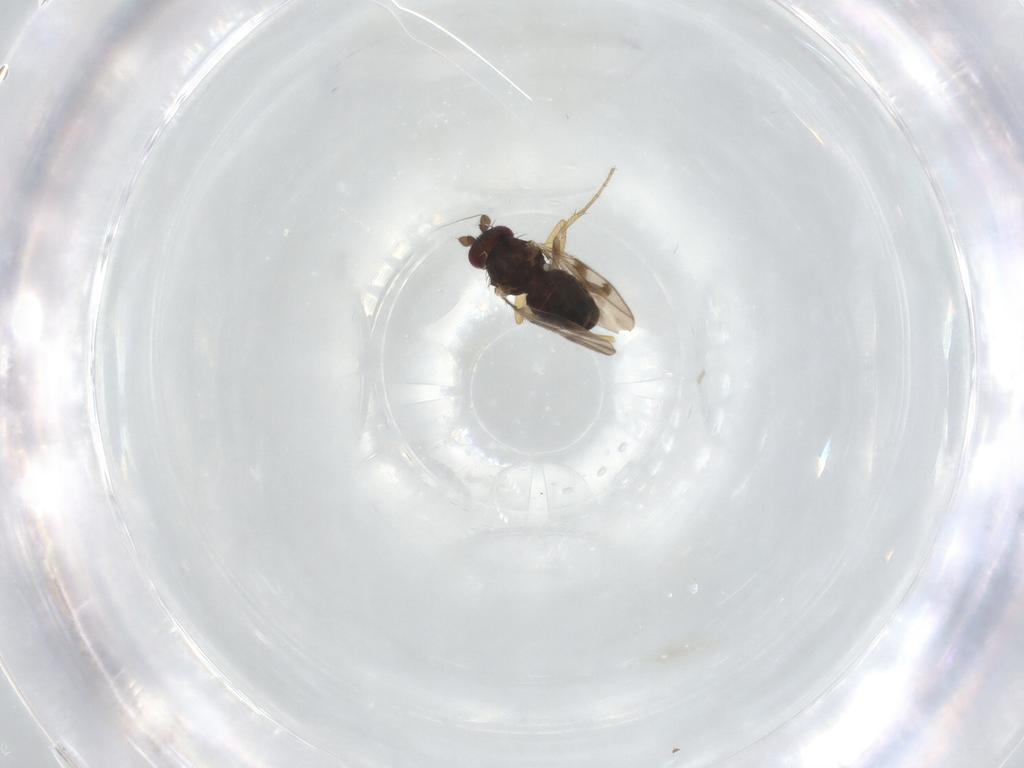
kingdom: Animalia
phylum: Arthropoda
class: Insecta
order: Diptera
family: Sphaeroceridae
